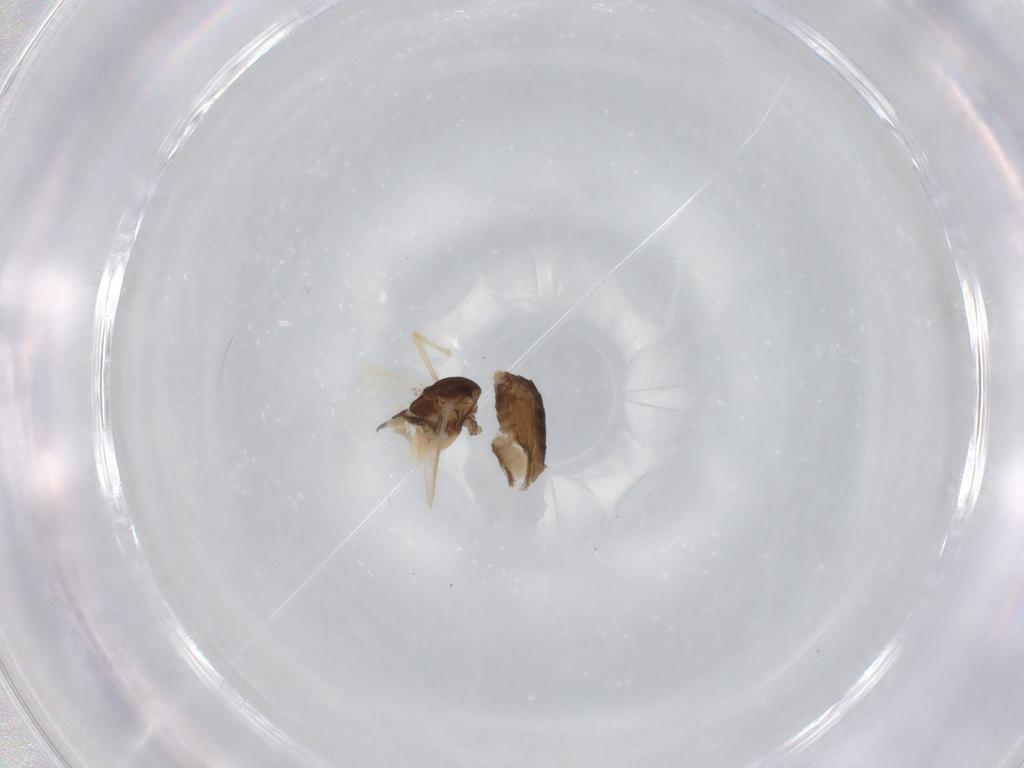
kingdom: Animalia
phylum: Arthropoda
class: Insecta
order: Diptera
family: Chironomidae
